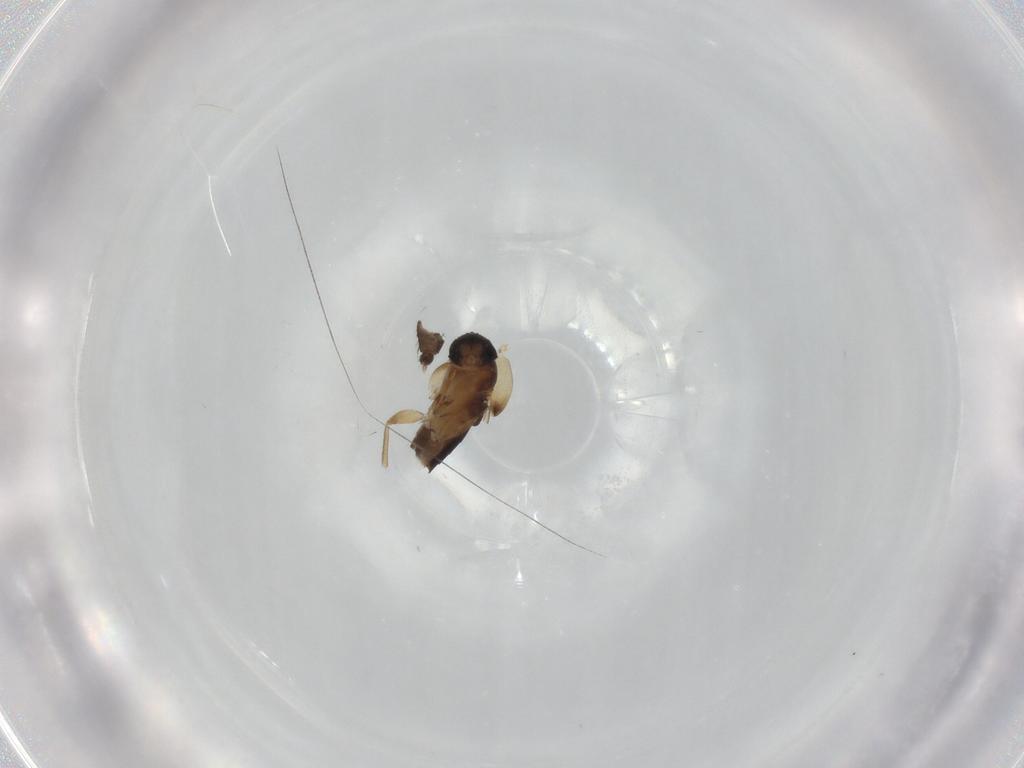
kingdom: Animalia
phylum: Arthropoda
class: Insecta
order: Diptera
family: Phoridae
